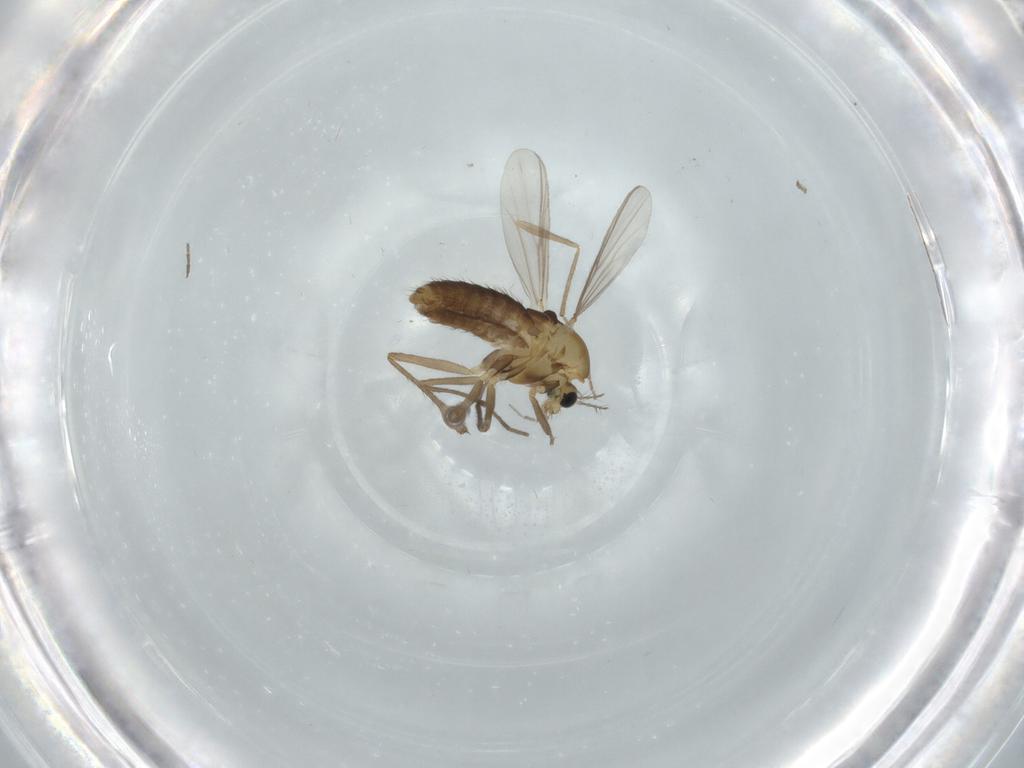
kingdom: Animalia
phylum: Arthropoda
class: Insecta
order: Diptera
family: Chironomidae
